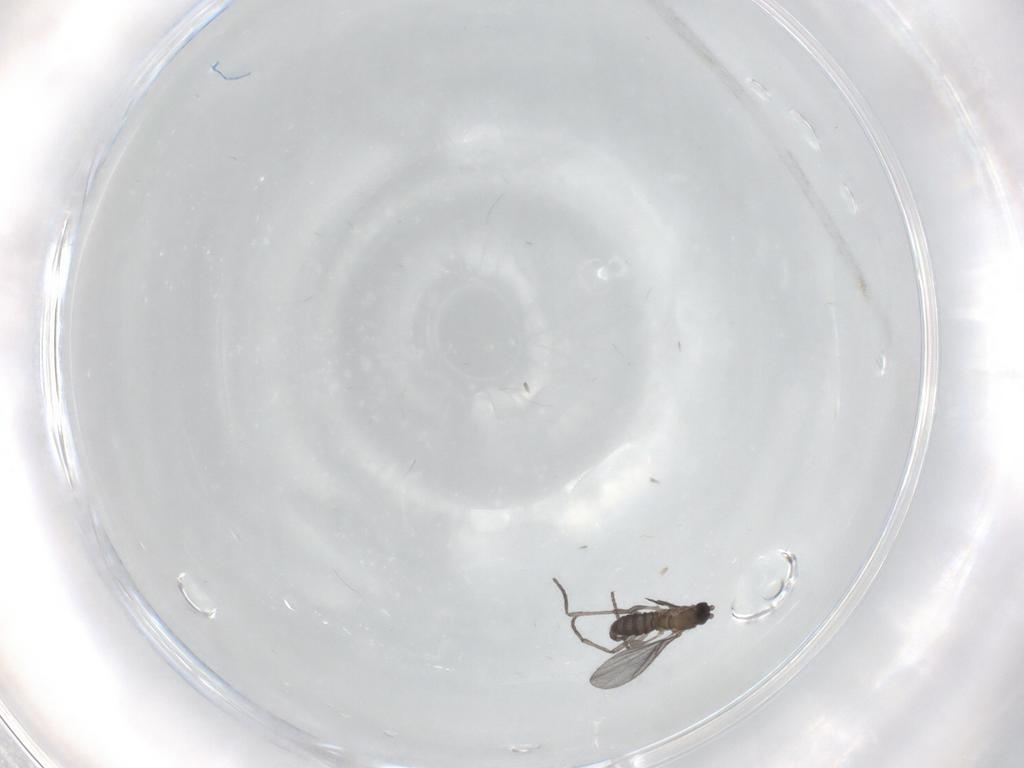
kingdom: Animalia
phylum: Arthropoda
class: Insecta
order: Diptera
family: Sciaridae
